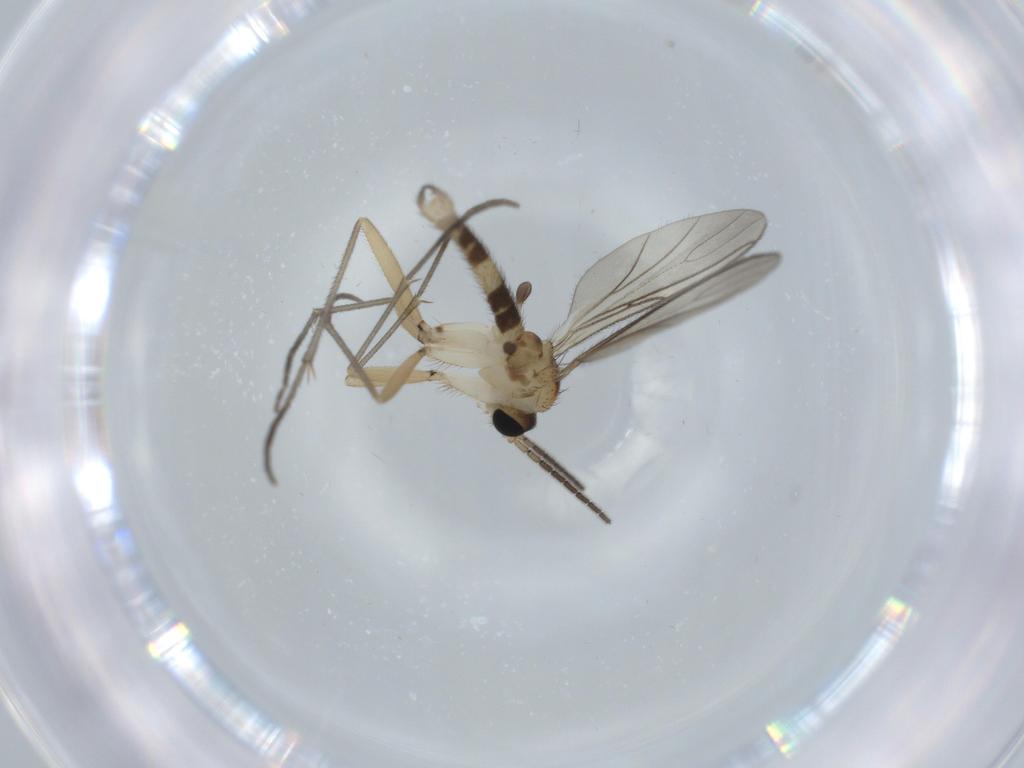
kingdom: Animalia
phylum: Arthropoda
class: Insecta
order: Diptera
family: Sciaridae
